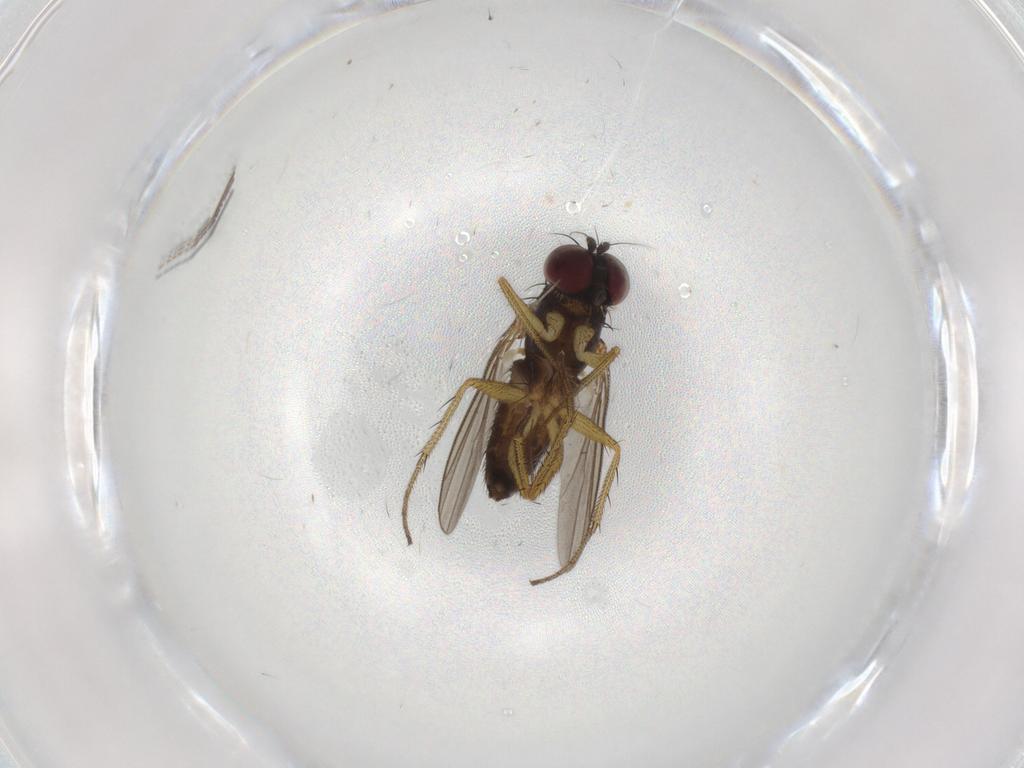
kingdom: Animalia
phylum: Arthropoda
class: Insecta
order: Diptera
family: Dolichopodidae
